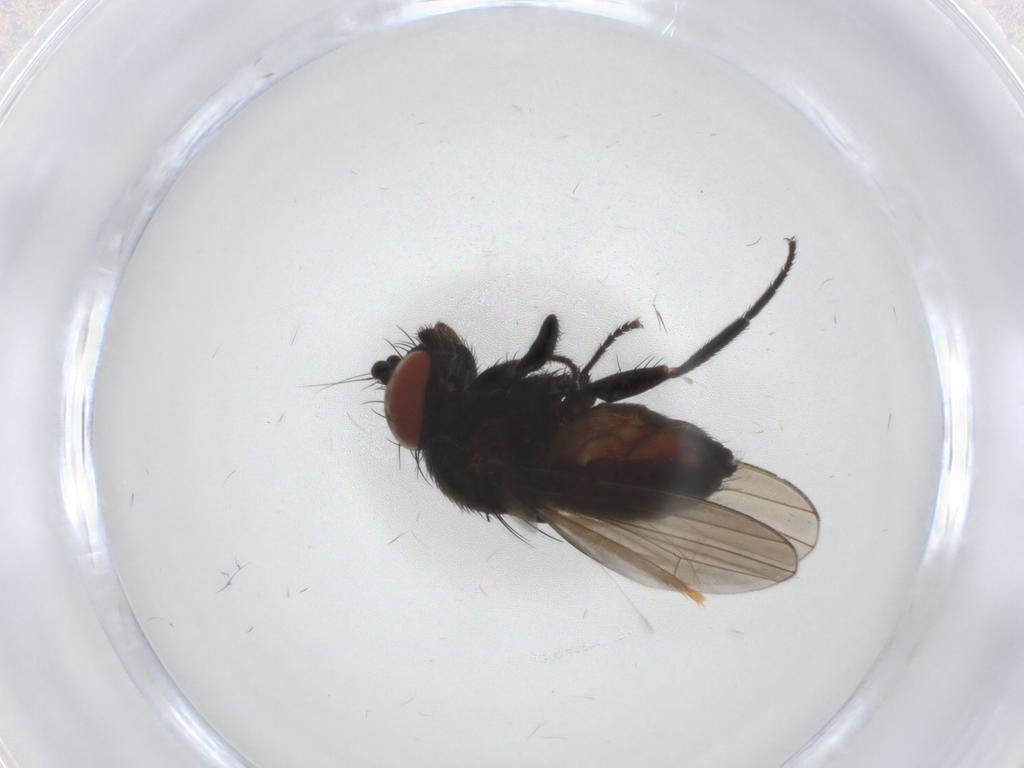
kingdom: Animalia
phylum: Arthropoda
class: Insecta
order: Diptera
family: Milichiidae
